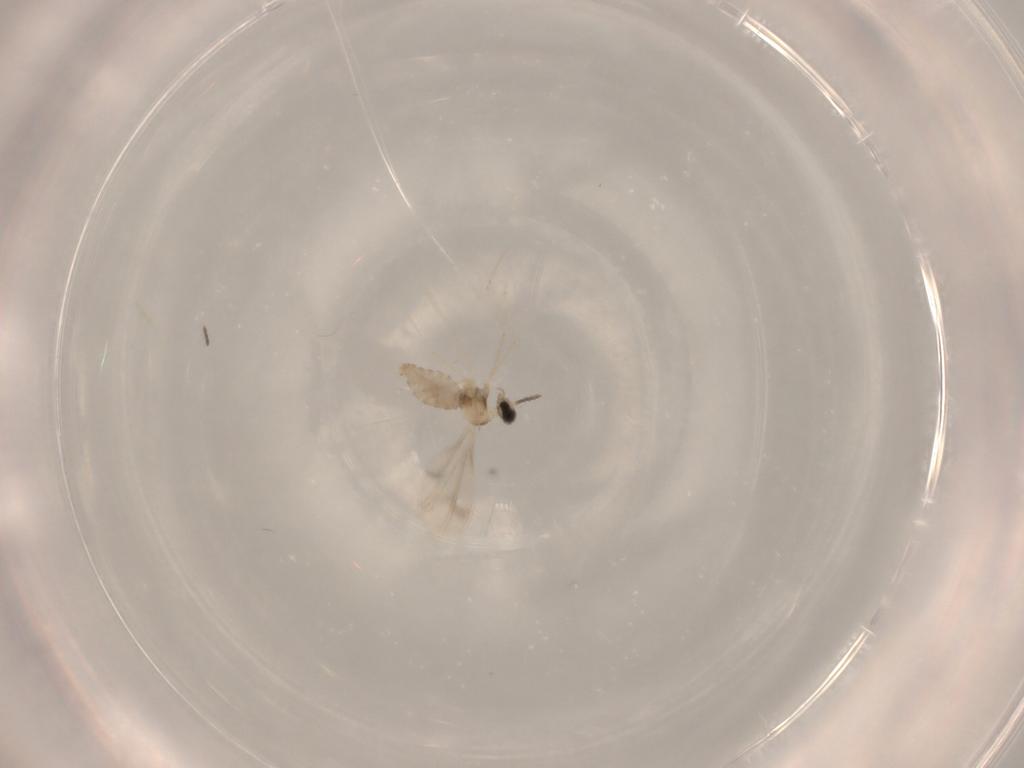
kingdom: Animalia
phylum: Arthropoda
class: Insecta
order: Diptera
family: Cecidomyiidae
